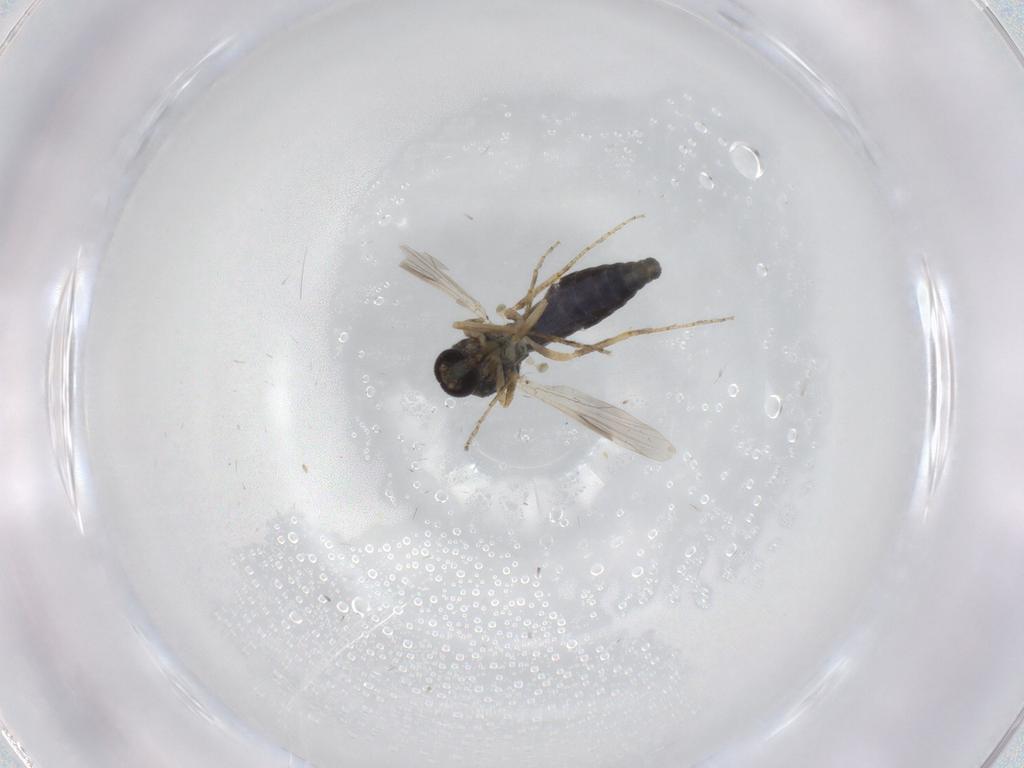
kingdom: Animalia
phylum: Arthropoda
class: Insecta
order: Diptera
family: Ceratopogonidae
